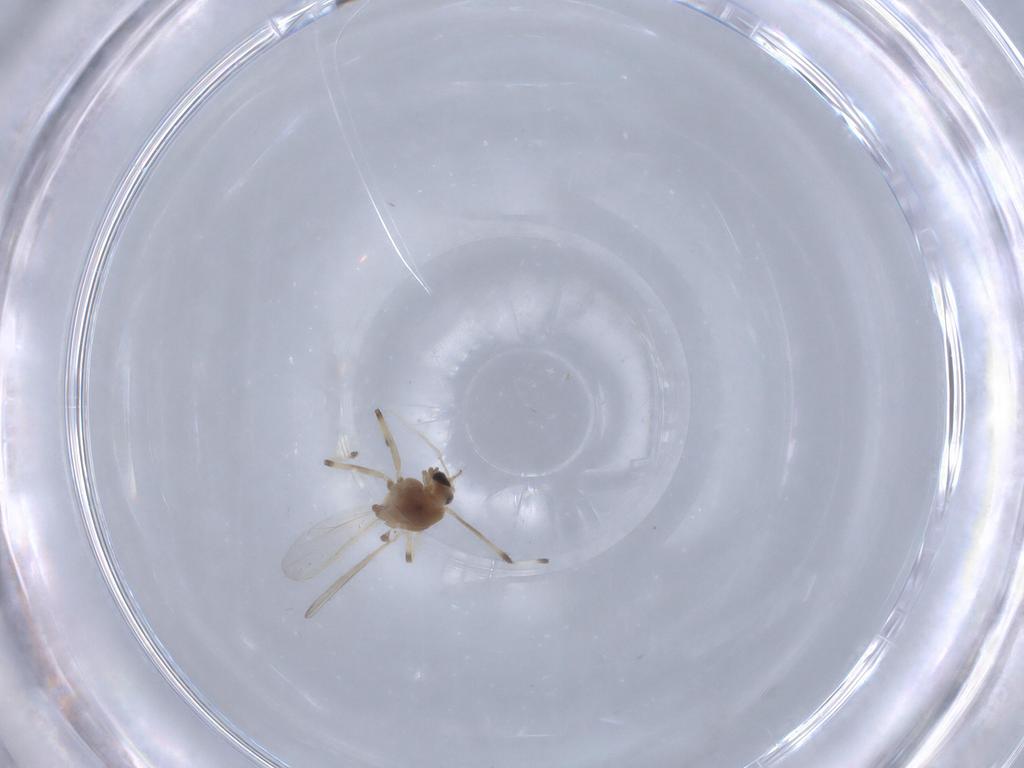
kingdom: Animalia
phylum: Arthropoda
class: Insecta
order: Diptera
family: Chironomidae
